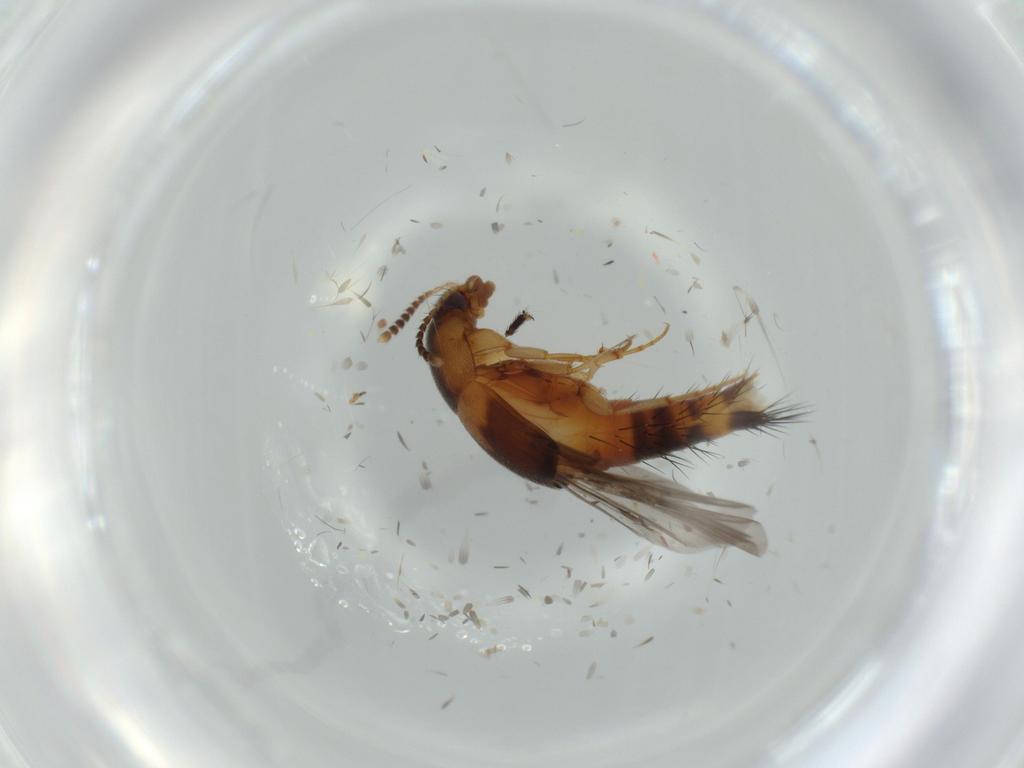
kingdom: Animalia
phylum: Arthropoda
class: Insecta
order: Coleoptera
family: Staphylinidae
